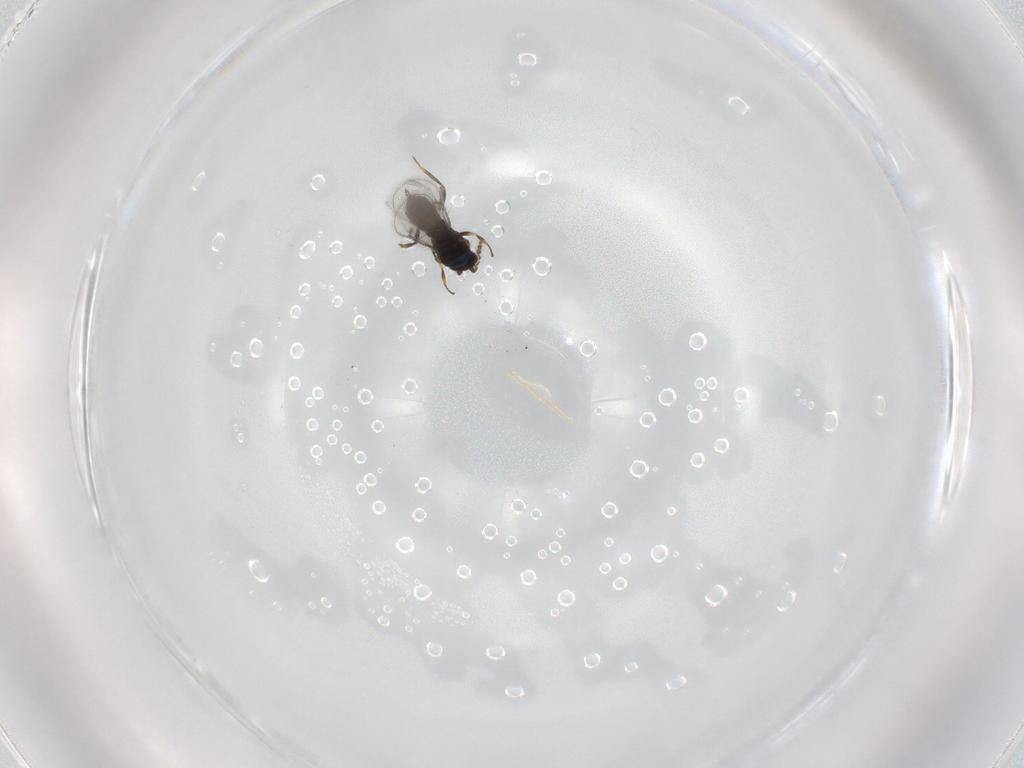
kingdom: Animalia
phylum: Arthropoda
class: Insecta
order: Hymenoptera
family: Eulophidae
